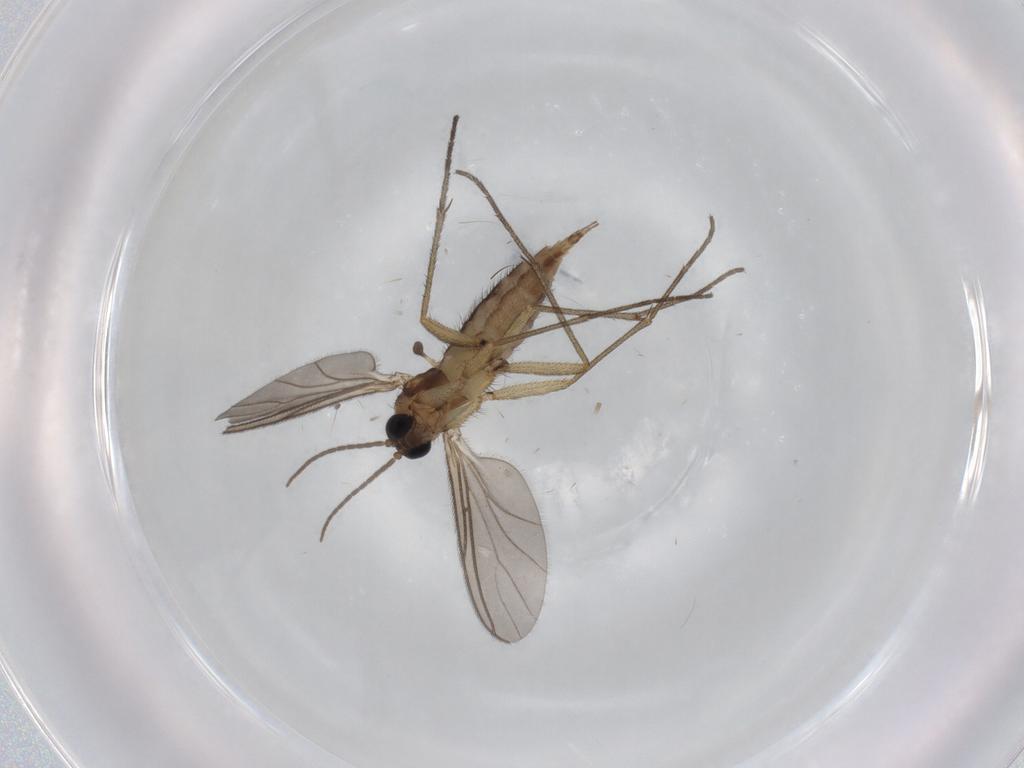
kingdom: Animalia
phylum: Arthropoda
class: Insecta
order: Diptera
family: Sciaridae
